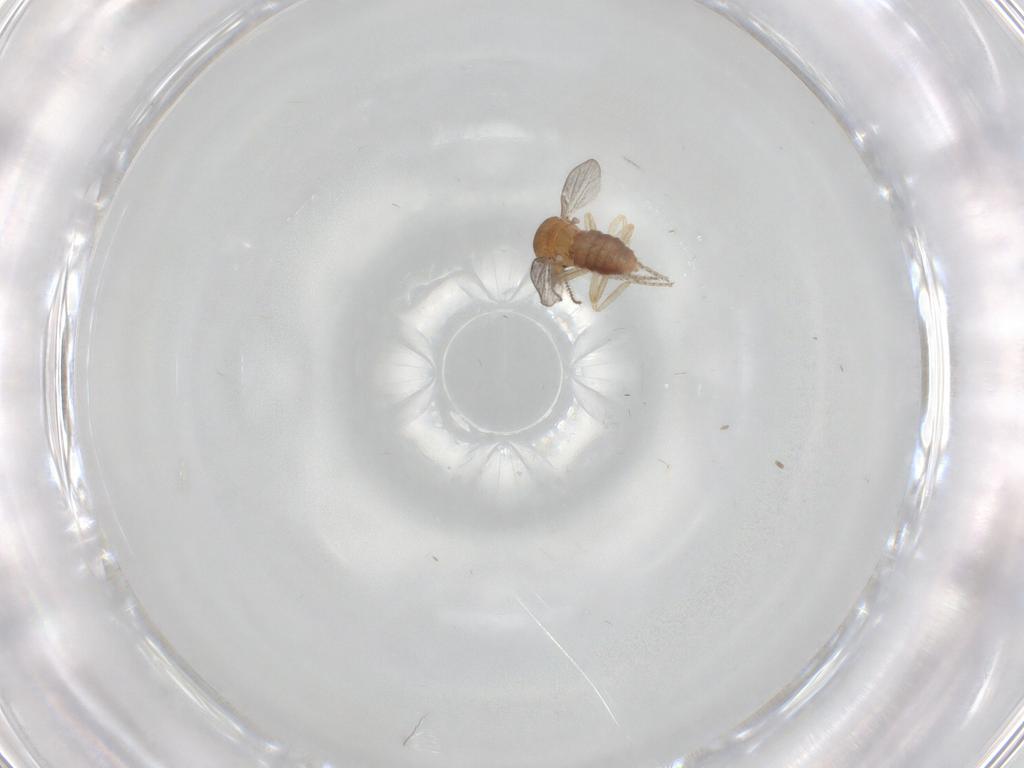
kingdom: Animalia
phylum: Arthropoda
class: Insecta
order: Diptera
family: Ceratopogonidae
